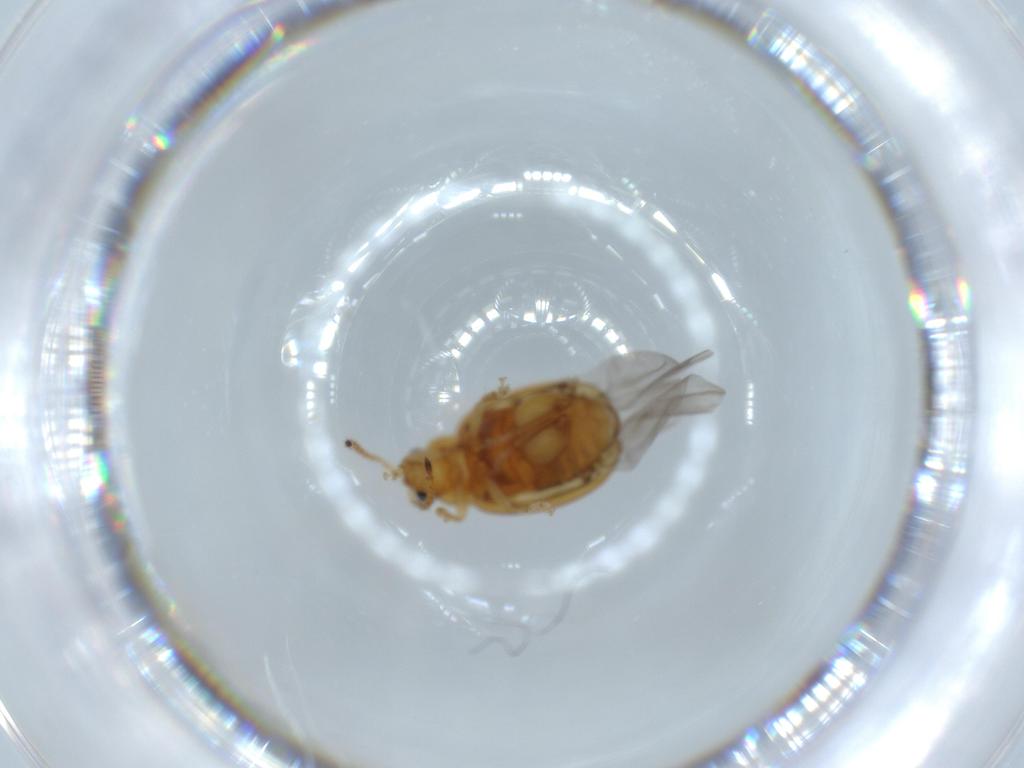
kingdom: Animalia
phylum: Arthropoda
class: Insecta
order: Coleoptera
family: Chrysomelidae
